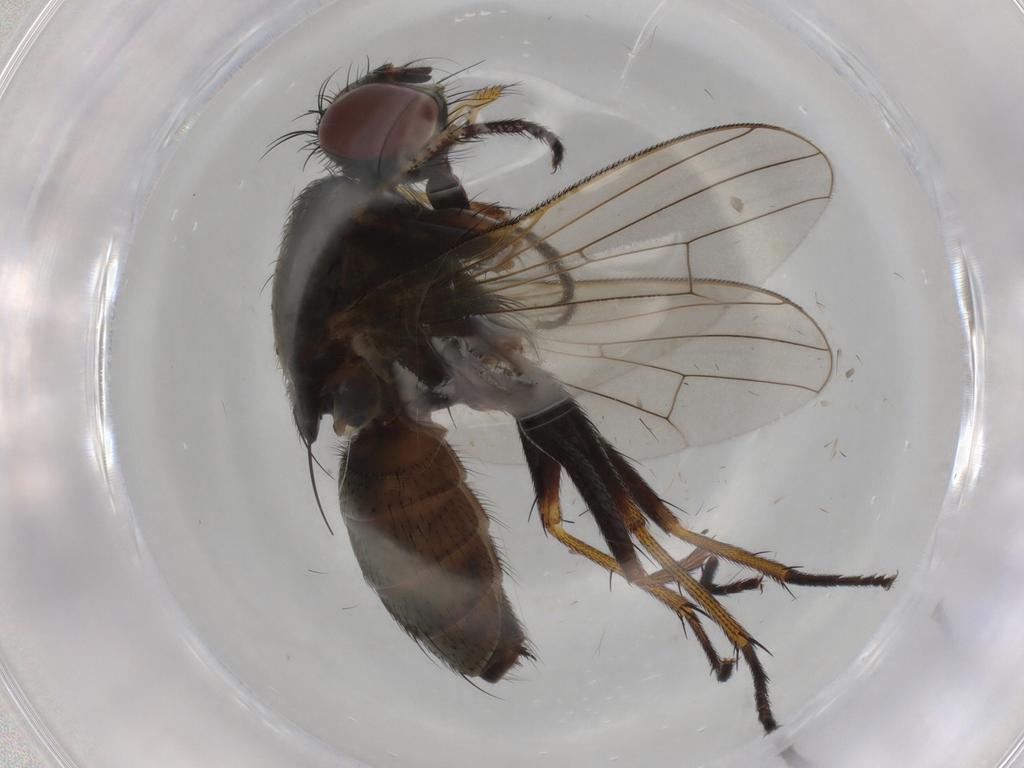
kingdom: Animalia
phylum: Arthropoda
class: Insecta
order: Diptera
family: Muscidae
